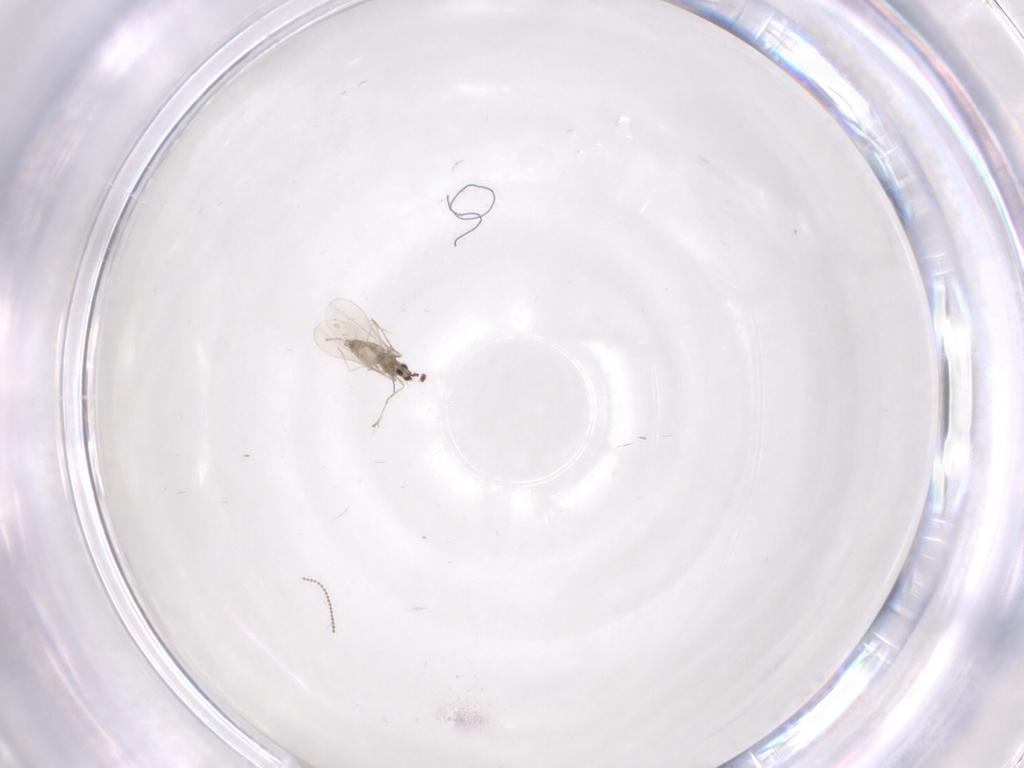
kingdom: Animalia
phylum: Arthropoda
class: Insecta
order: Diptera
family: Cecidomyiidae
